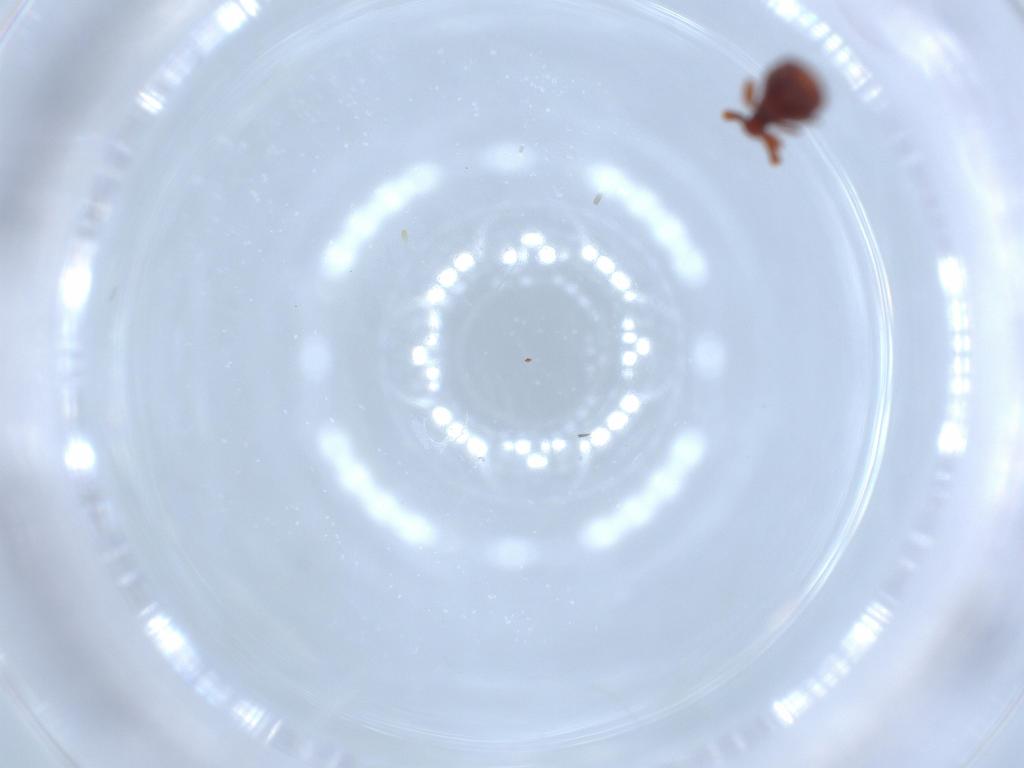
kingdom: Animalia
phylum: Arthropoda
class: Insecta
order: Coleoptera
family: Staphylinidae
